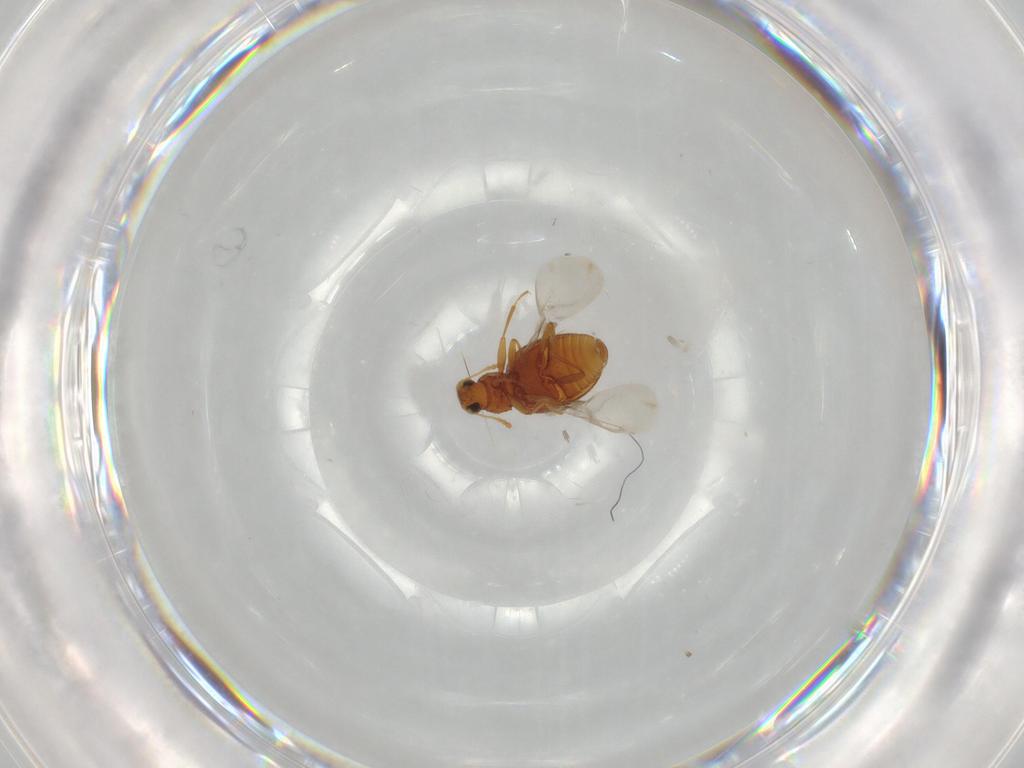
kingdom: Animalia
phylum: Arthropoda
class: Insecta
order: Coleoptera
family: Latridiidae
